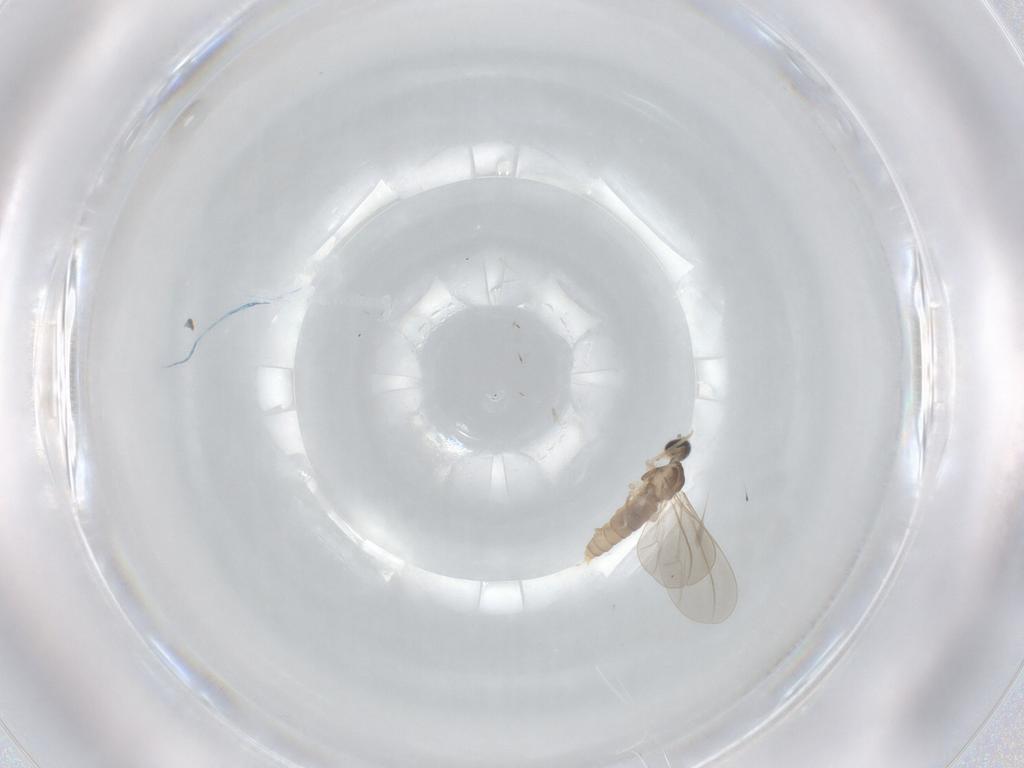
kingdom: Animalia
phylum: Arthropoda
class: Insecta
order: Diptera
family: Cecidomyiidae
